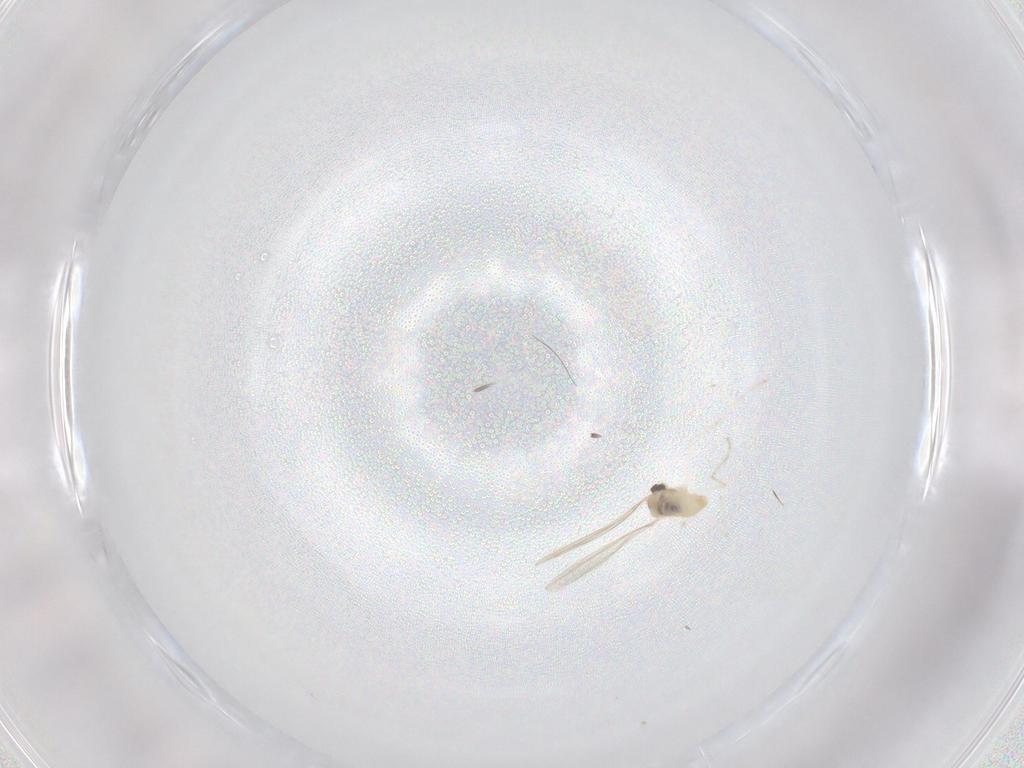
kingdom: Animalia
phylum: Arthropoda
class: Insecta
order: Diptera
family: Cecidomyiidae
